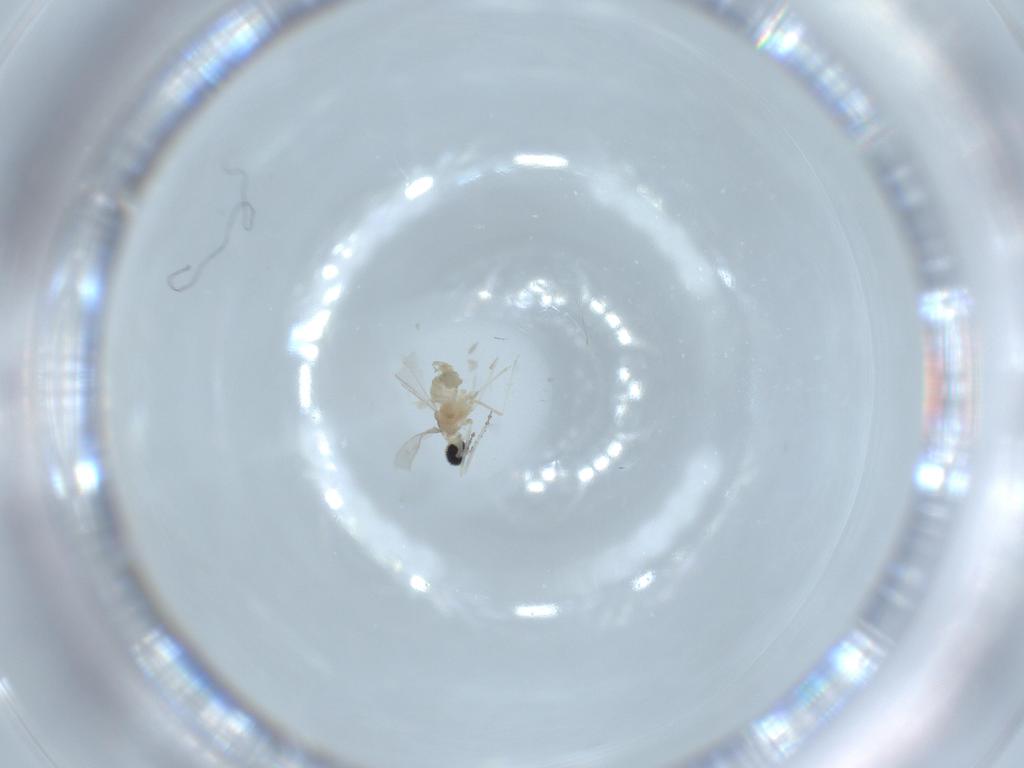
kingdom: Animalia
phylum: Arthropoda
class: Insecta
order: Diptera
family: Cecidomyiidae
